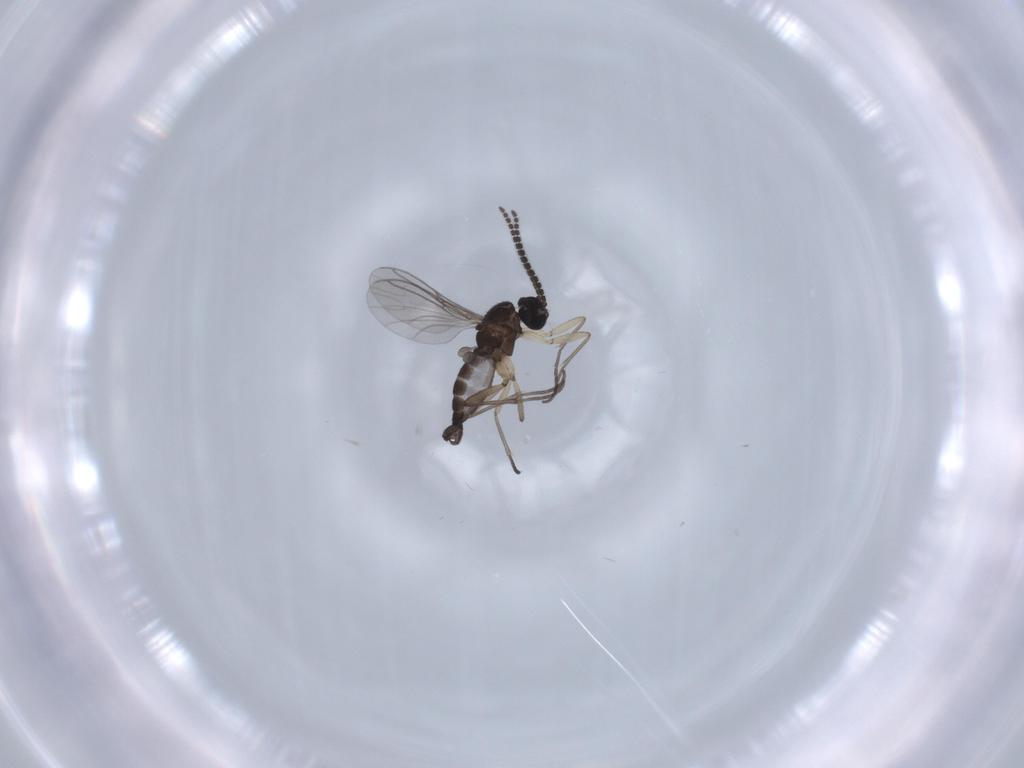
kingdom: Animalia
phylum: Arthropoda
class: Insecta
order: Diptera
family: Sciaridae
